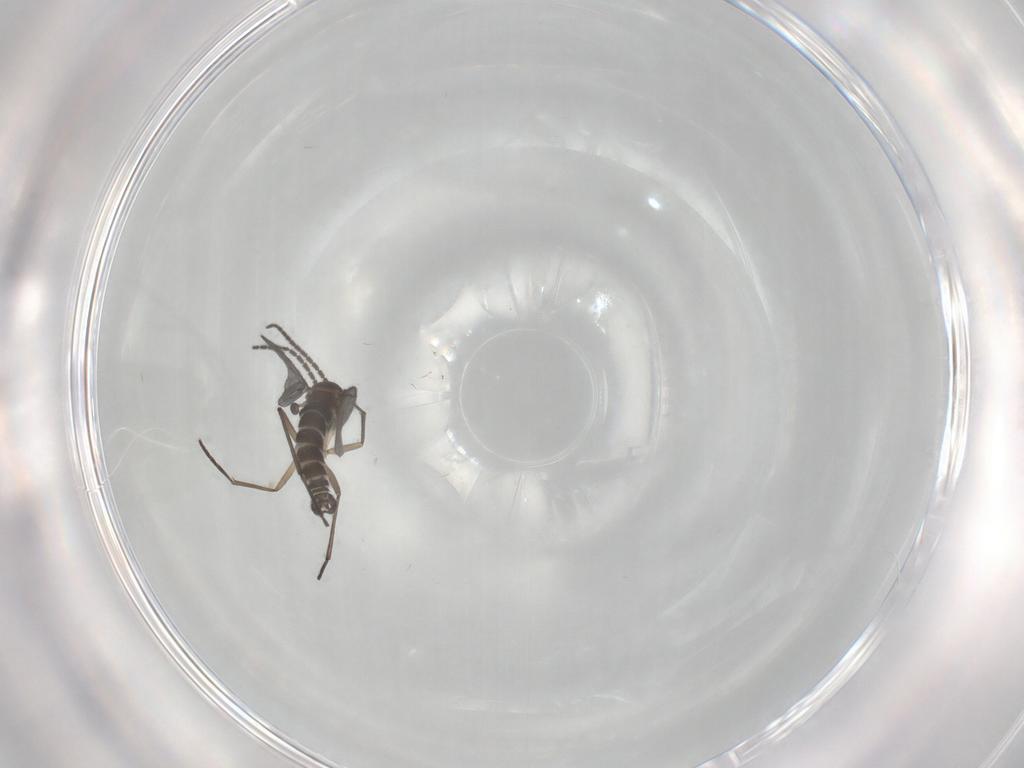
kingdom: Animalia
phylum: Arthropoda
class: Insecta
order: Diptera
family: Sciaridae
